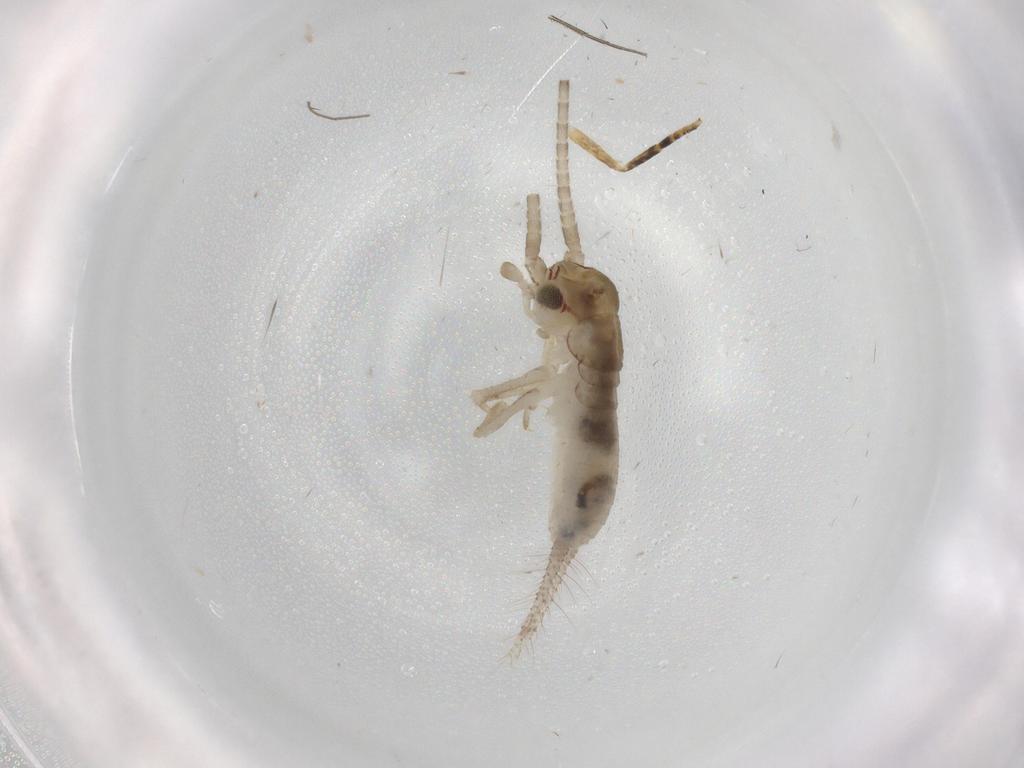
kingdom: Animalia
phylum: Arthropoda
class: Insecta
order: Orthoptera
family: Gryllidae
